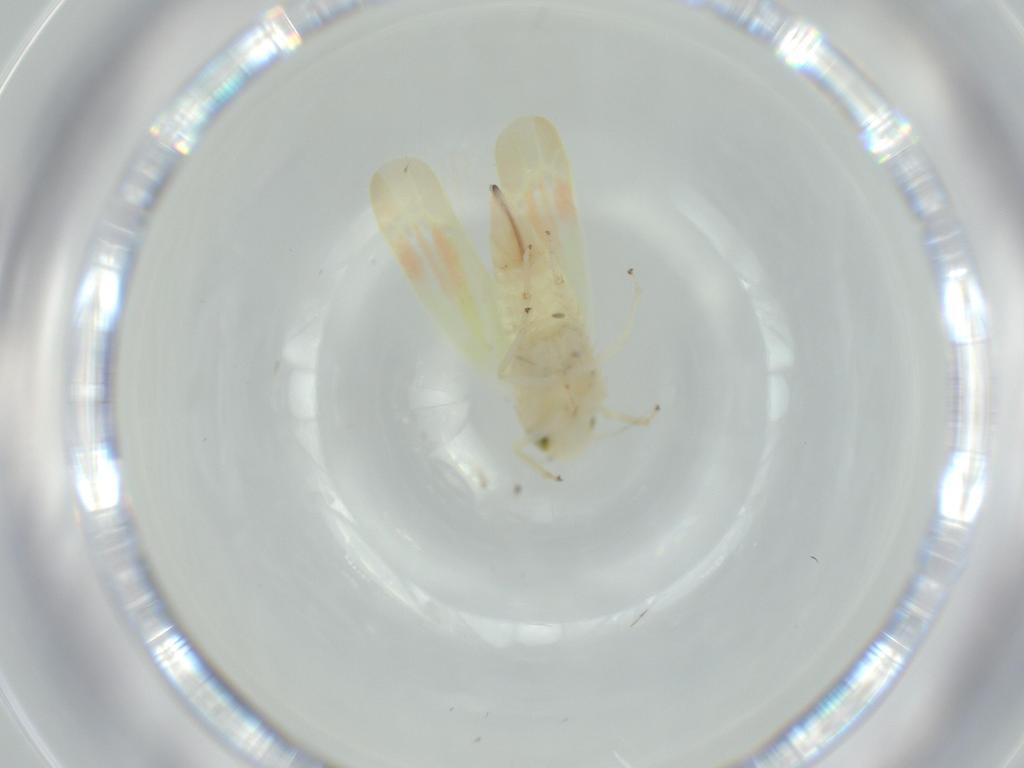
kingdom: Animalia
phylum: Arthropoda
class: Insecta
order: Hemiptera
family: Cicadellidae
